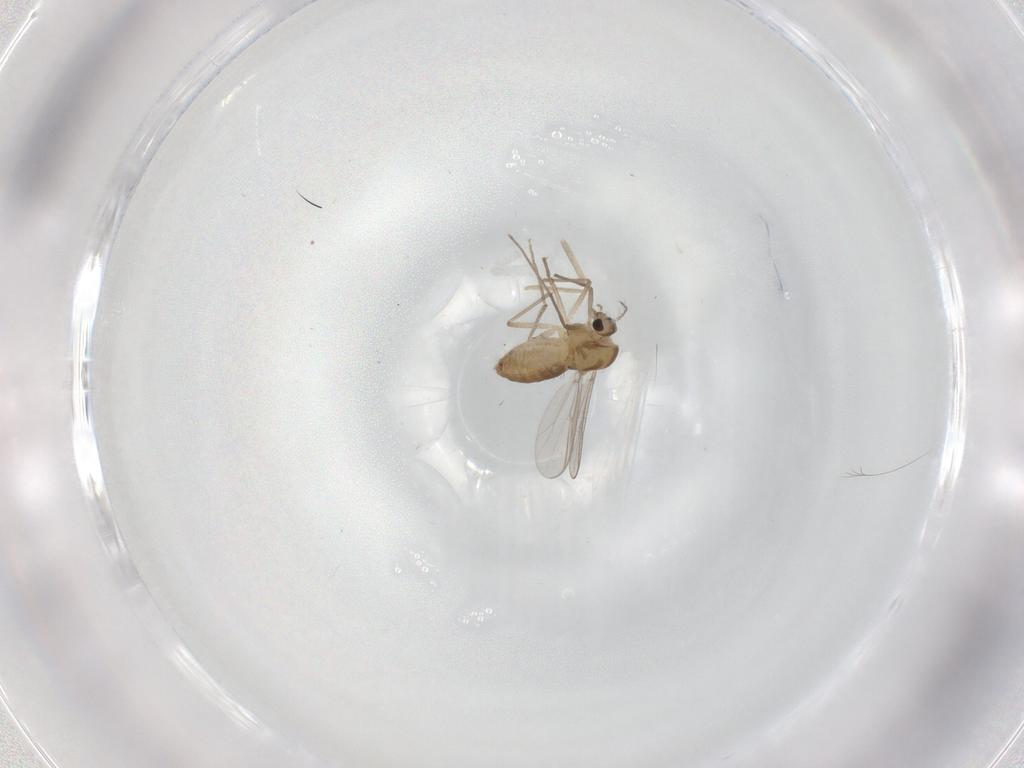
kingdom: Animalia
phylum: Arthropoda
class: Insecta
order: Diptera
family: Chironomidae
